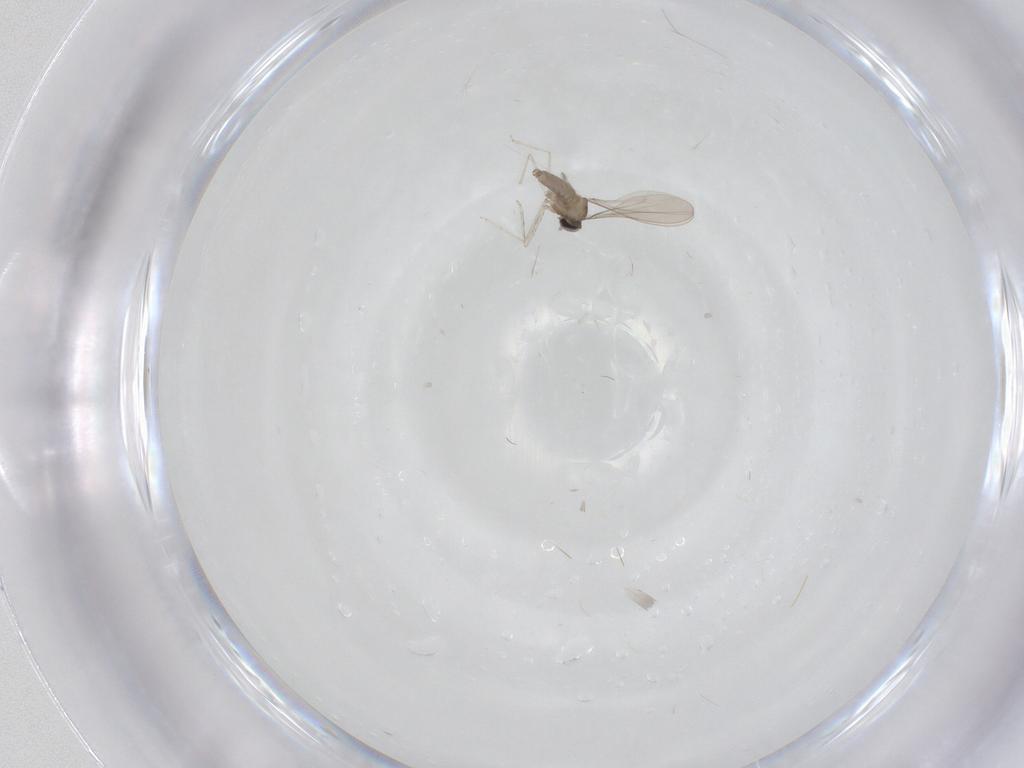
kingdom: Animalia
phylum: Arthropoda
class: Insecta
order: Diptera
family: Cecidomyiidae
